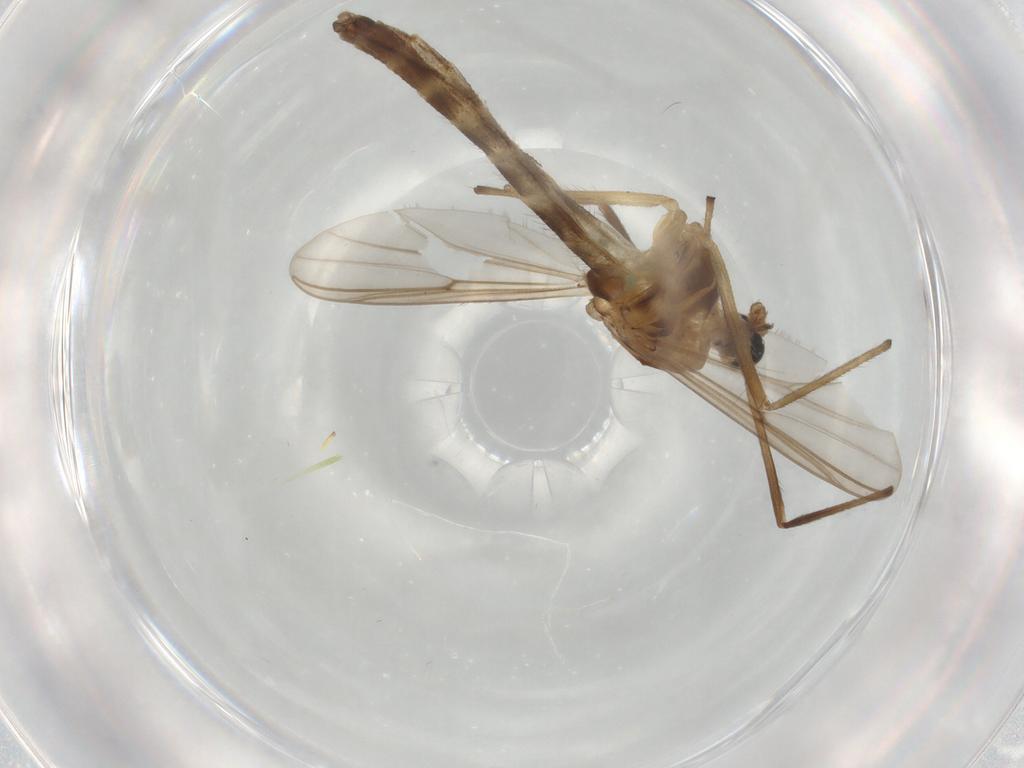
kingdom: Animalia
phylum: Arthropoda
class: Insecta
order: Diptera
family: Chironomidae
